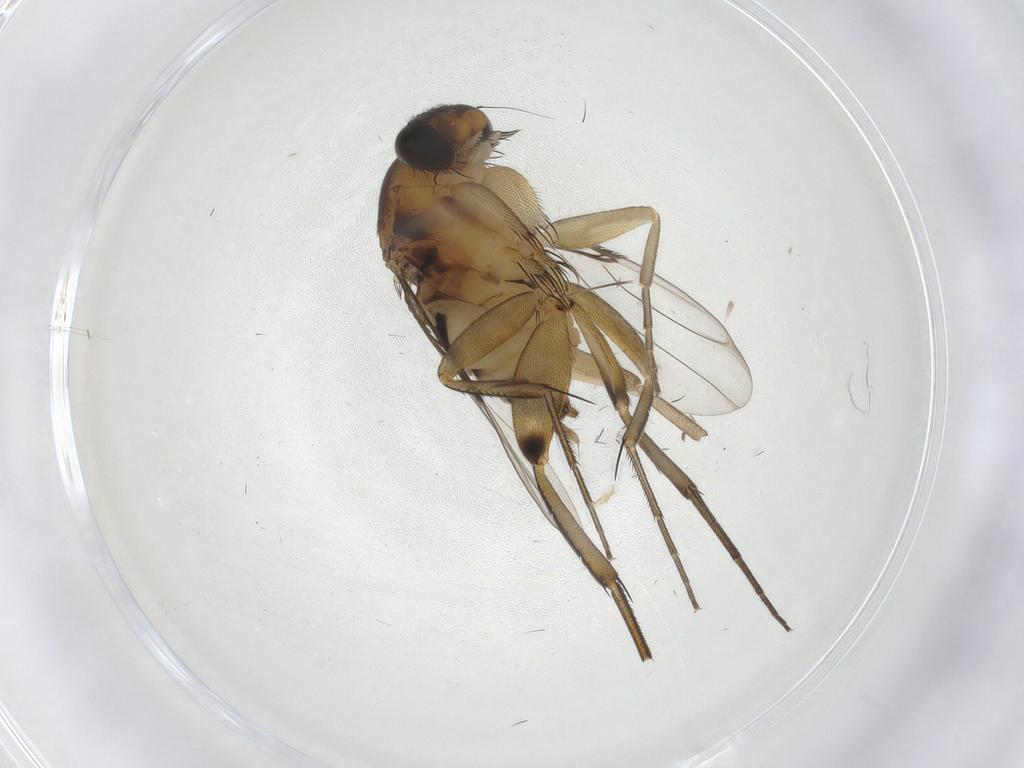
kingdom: Animalia
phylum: Arthropoda
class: Insecta
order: Diptera
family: Phoridae
